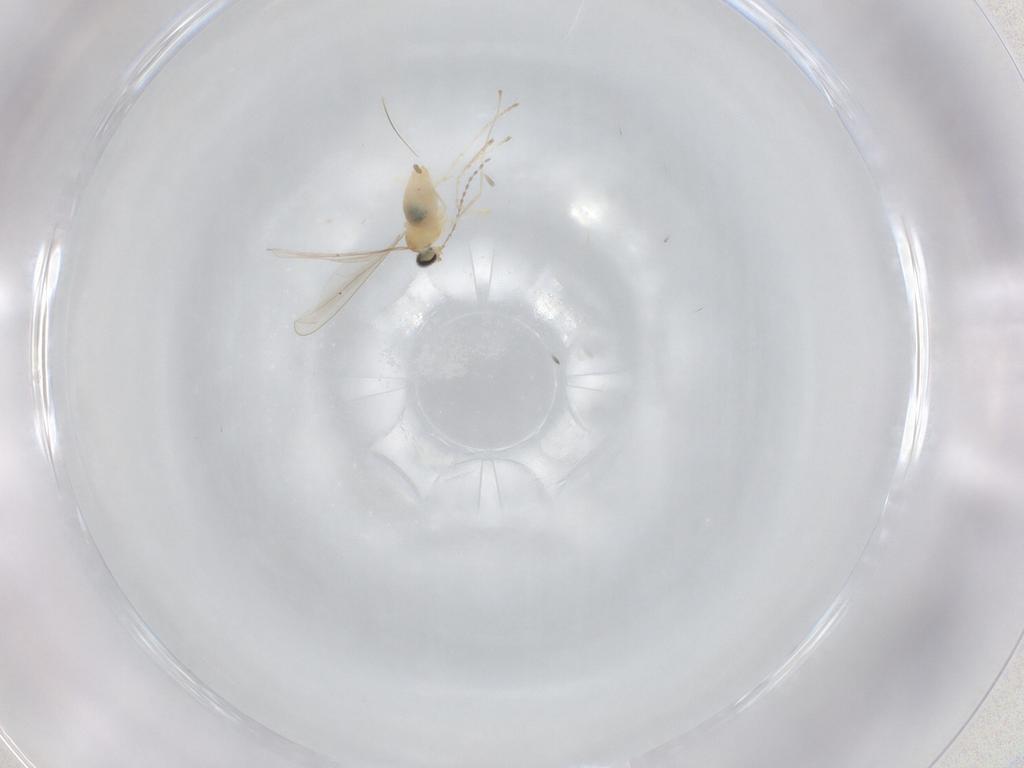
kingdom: Animalia
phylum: Arthropoda
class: Insecta
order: Diptera
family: Cecidomyiidae
